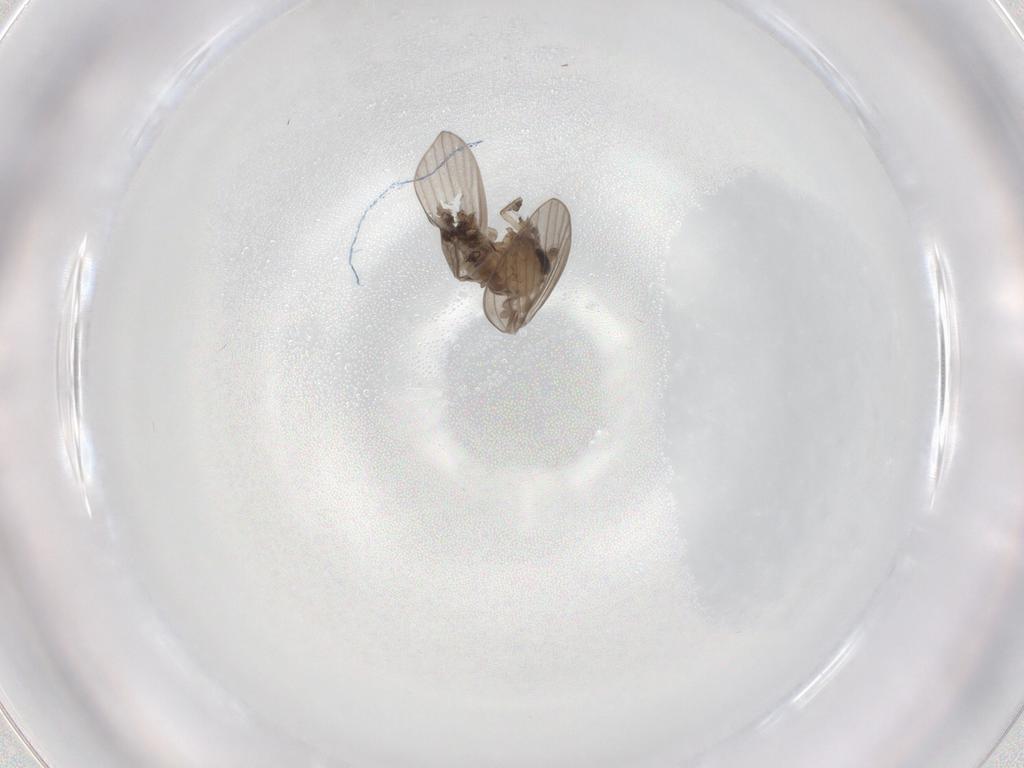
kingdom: Animalia
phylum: Arthropoda
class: Insecta
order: Diptera
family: Psychodidae
